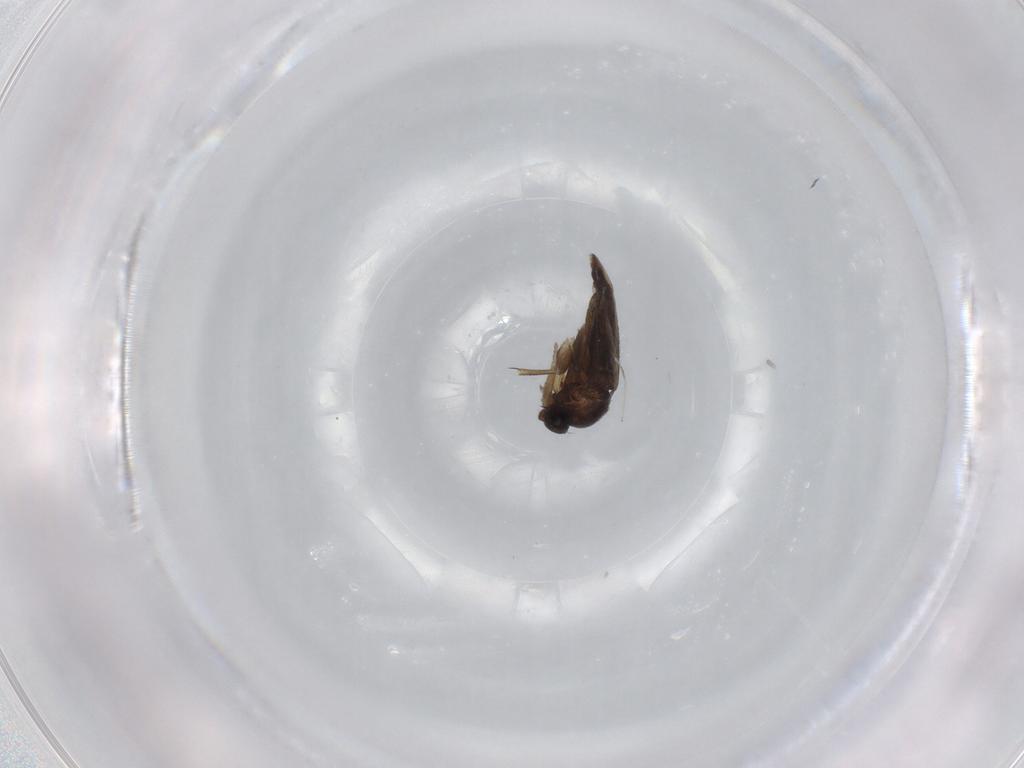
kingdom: Animalia
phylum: Arthropoda
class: Insecta
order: Diptera
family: Phoridae
